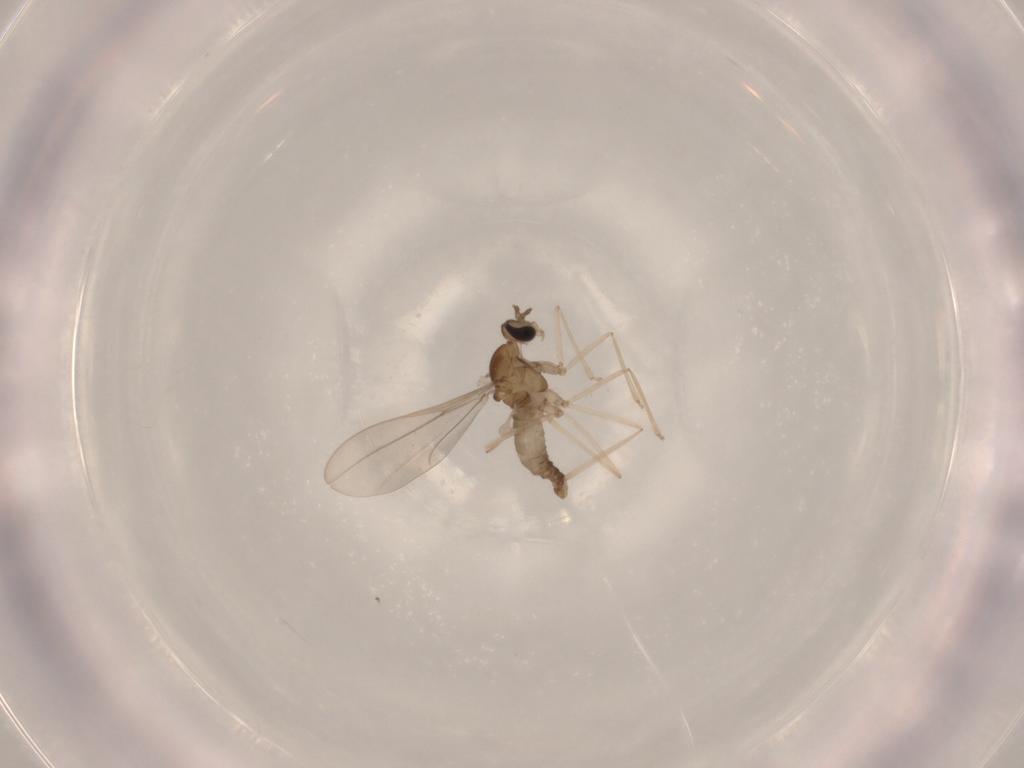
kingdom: Animalia
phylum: Arthropoda
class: Insecta
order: Diptera
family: Cecidomyiidae
